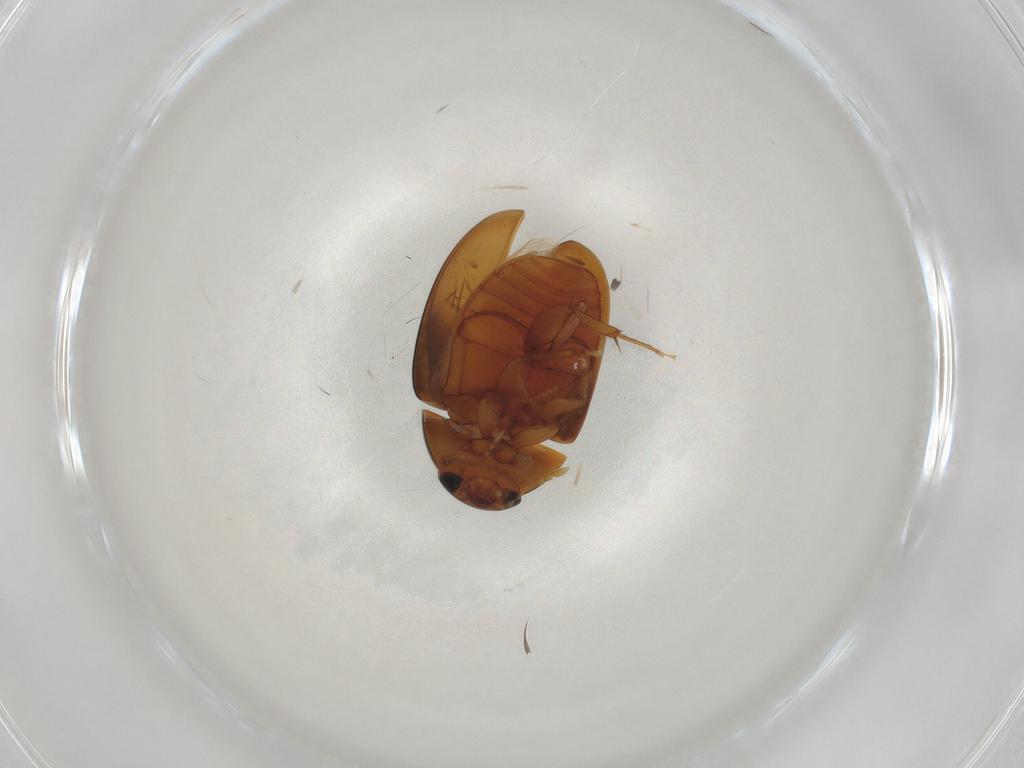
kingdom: Animalia
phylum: Arthropoda
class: Insecta
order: Coleoptera
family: Phalacridae
